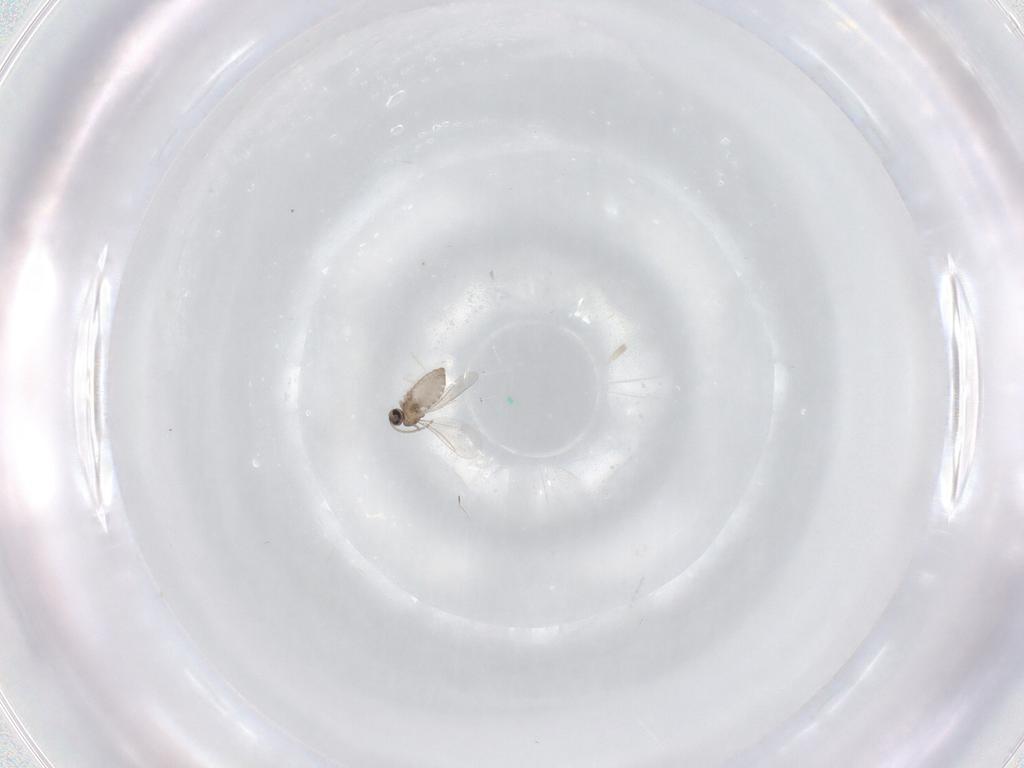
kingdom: Animalia
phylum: Arthropoda
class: Insecta
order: Diptera
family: Cecidomyiidae
